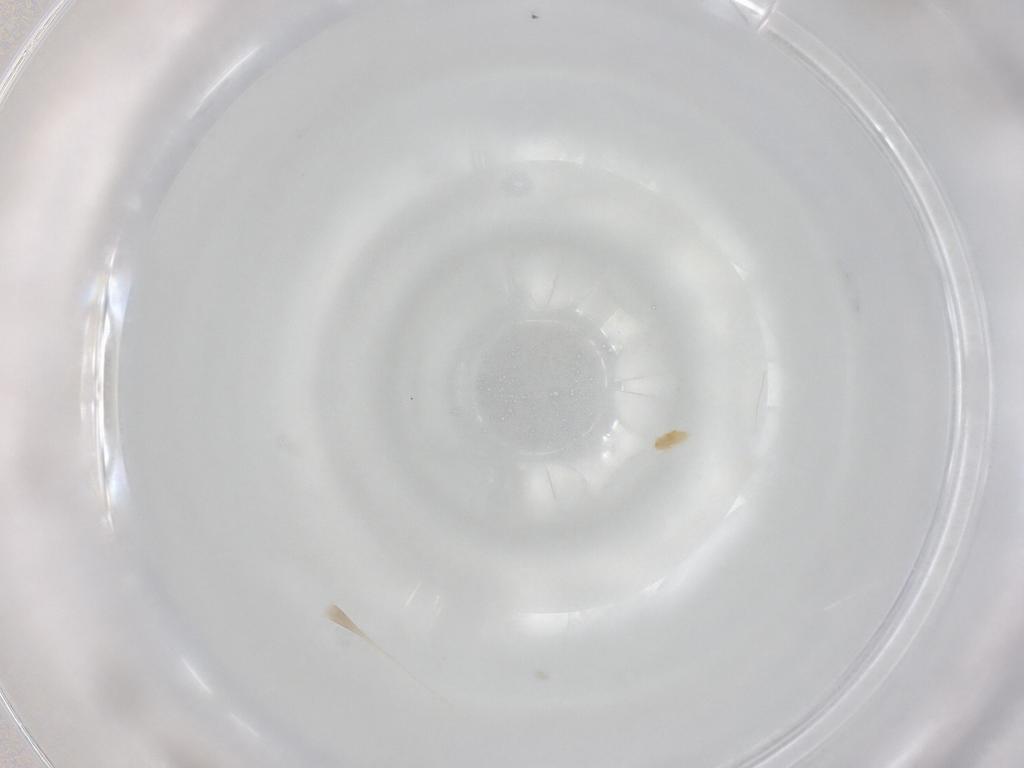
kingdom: Animalia
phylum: Arthropoda
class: Arachnida
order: Trombidiformes
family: Eupodidae
